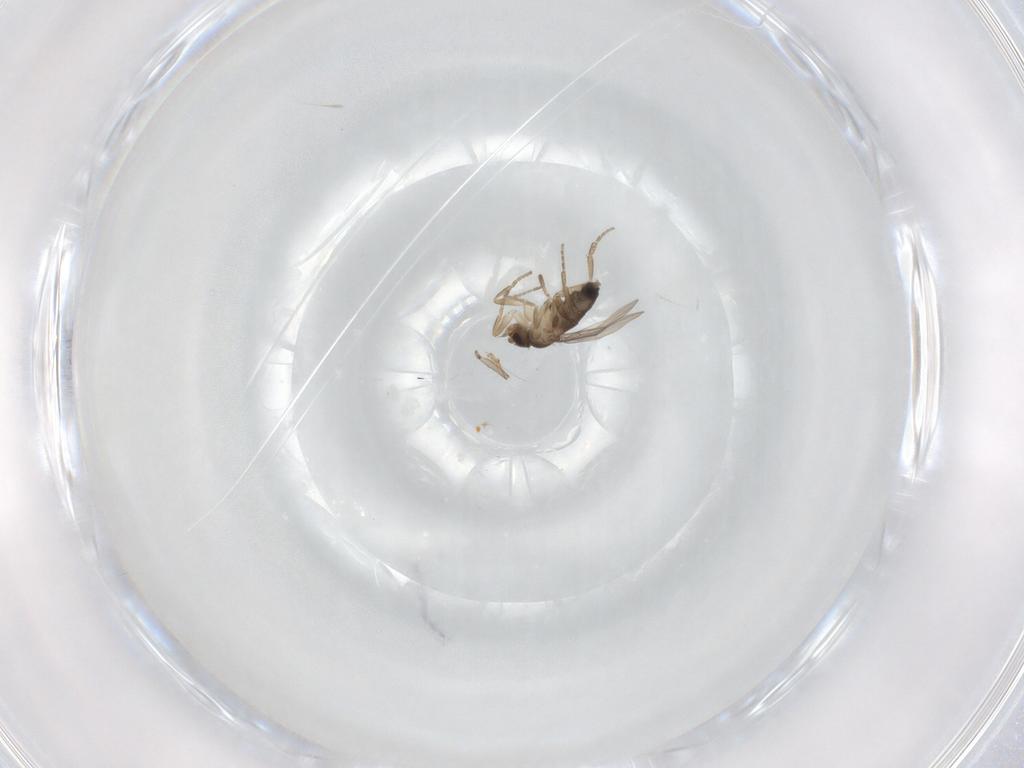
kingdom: Animalia
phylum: Arthropoda
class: Insecta
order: Diptera
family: Phoridae
